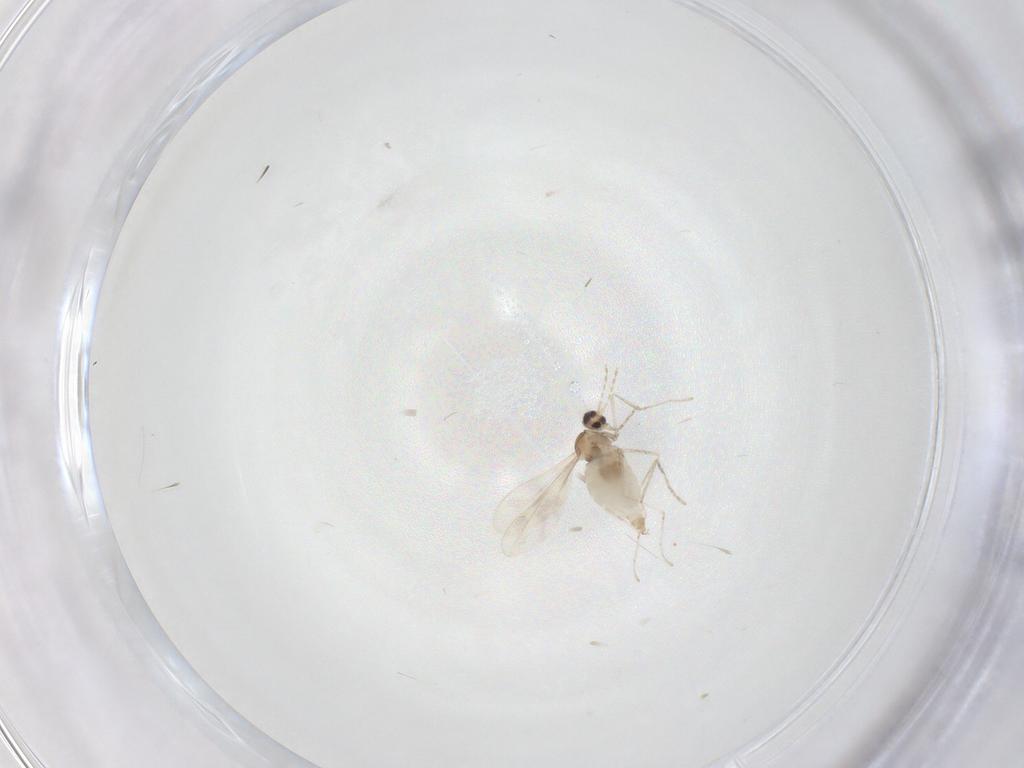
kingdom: Animalia
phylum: Arthropoda
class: Insecta
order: Diptera
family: Cecidomyiidae
